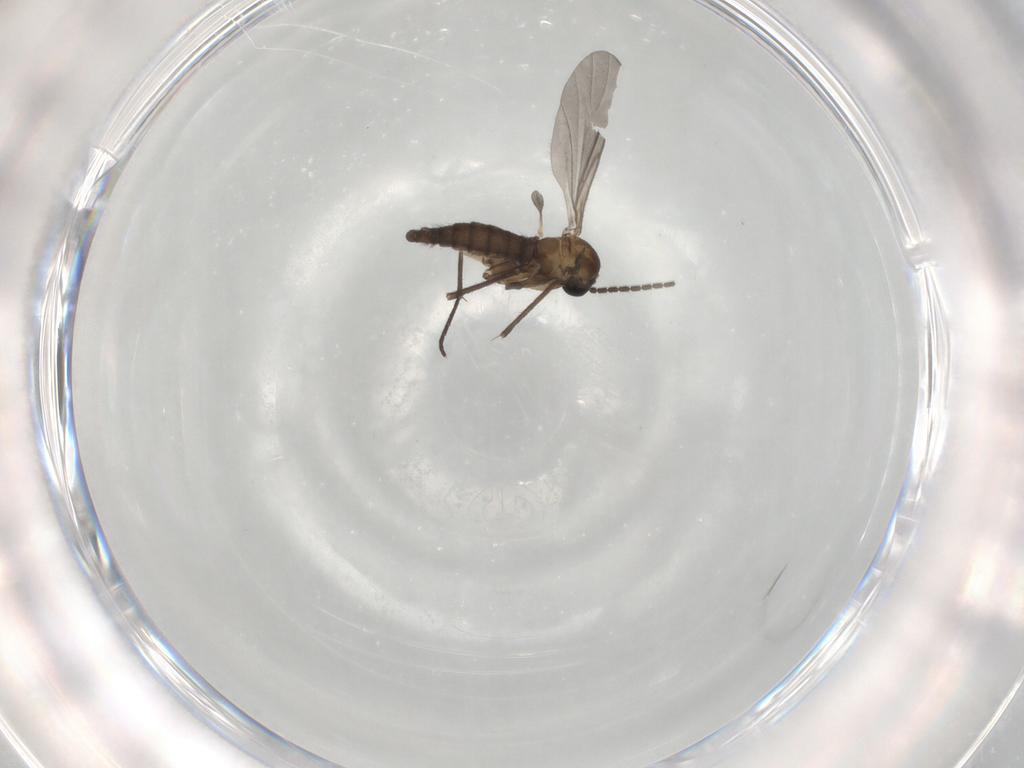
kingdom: Animalia
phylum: Arthropoda
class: Insecta
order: Diptera
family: Sciaridae
